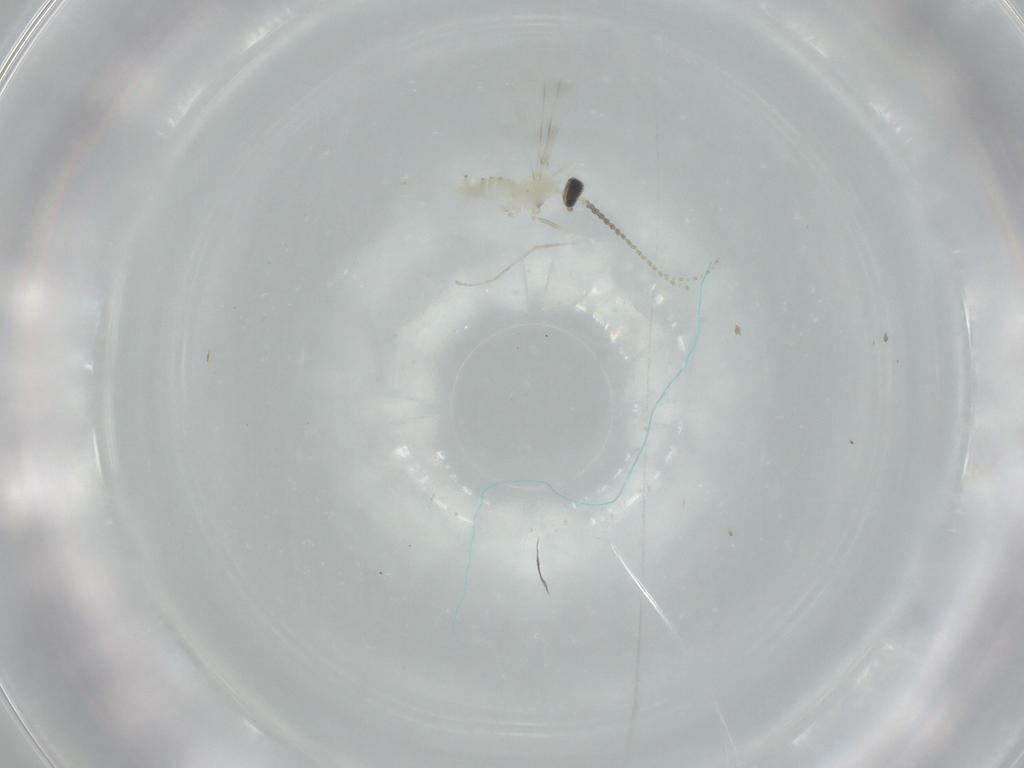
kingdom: Animalia
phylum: Arthropoda
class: Insecta
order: Diptera
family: Cecidomyiidae
